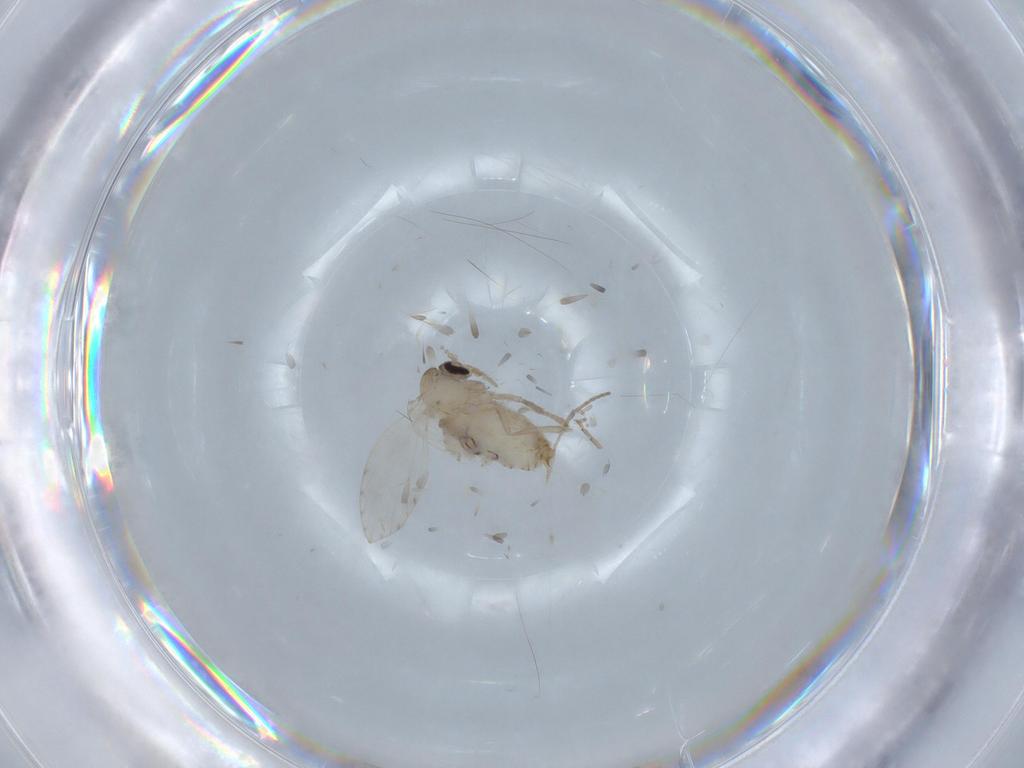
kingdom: Animalia
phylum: Arthropoda
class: Insecta
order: Diptera
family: Psychodidae
